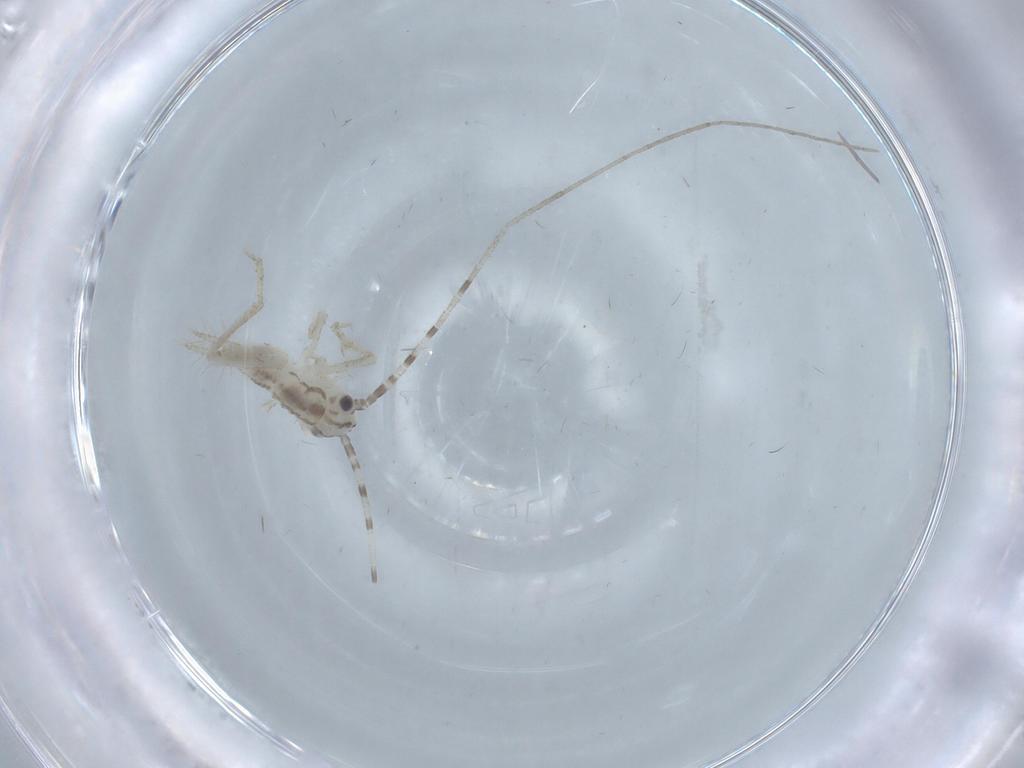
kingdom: Animalia
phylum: Arthropoda
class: Insecta
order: Orthoptera
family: Trigonidiidae
